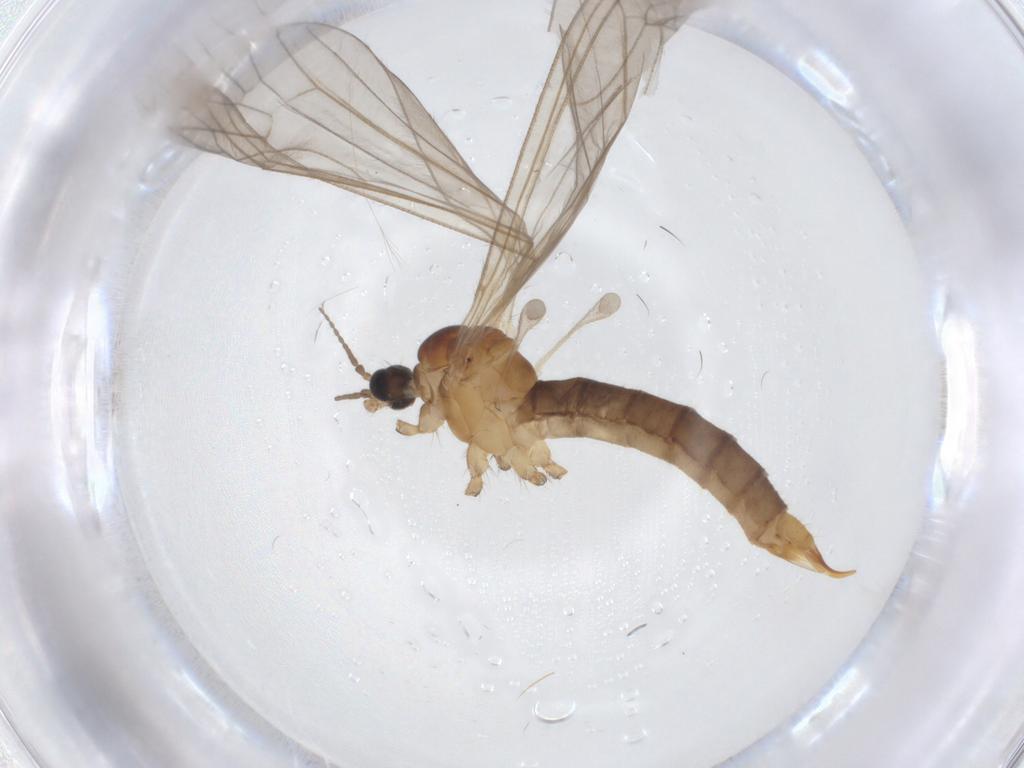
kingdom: Animalia
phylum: Arthropoda
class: Insecta
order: Diptera
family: Limoniidae
